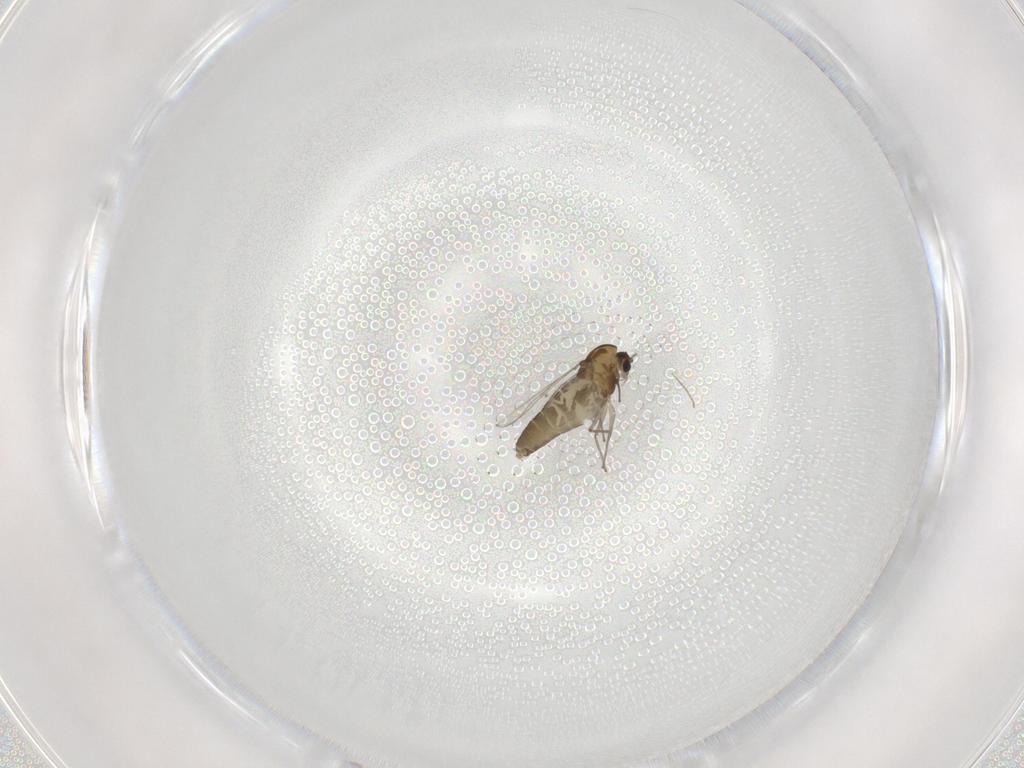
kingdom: Animalia
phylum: Arthropoda
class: Insecta
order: Diptera
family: Chironomidae
